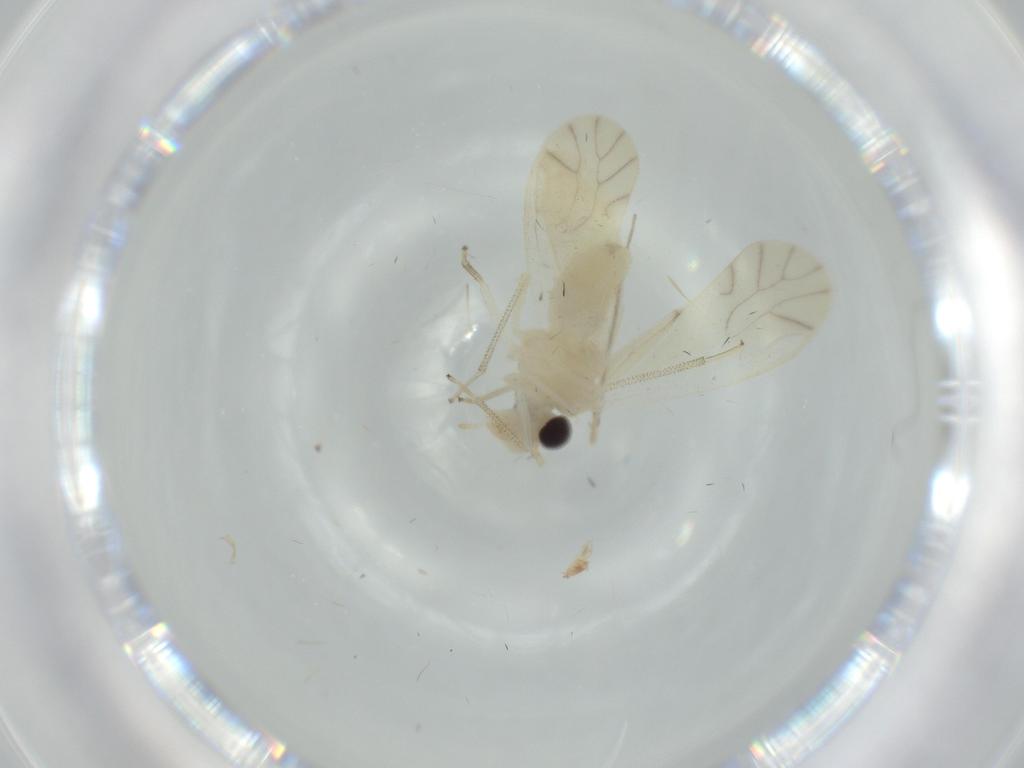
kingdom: Animalia
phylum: Arthropoda
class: Insecta
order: Psocodea
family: Caeciliusidae
